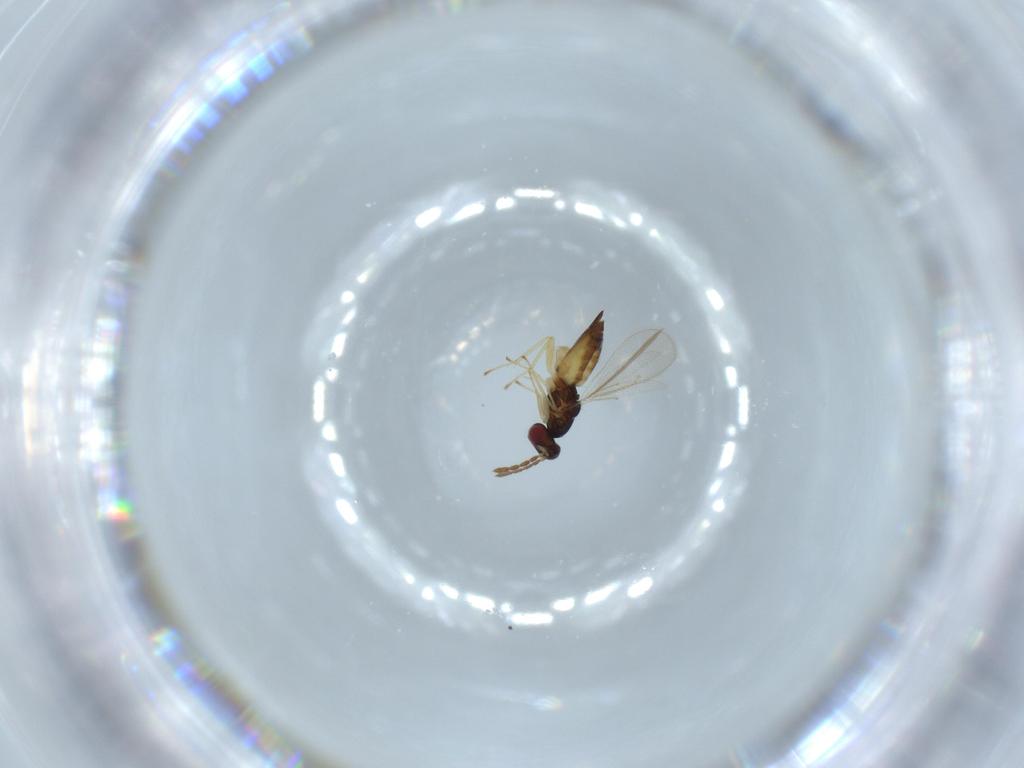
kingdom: Animalia
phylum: Arthropoda
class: Insecta
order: Hymenoptera
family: Eulophidae
